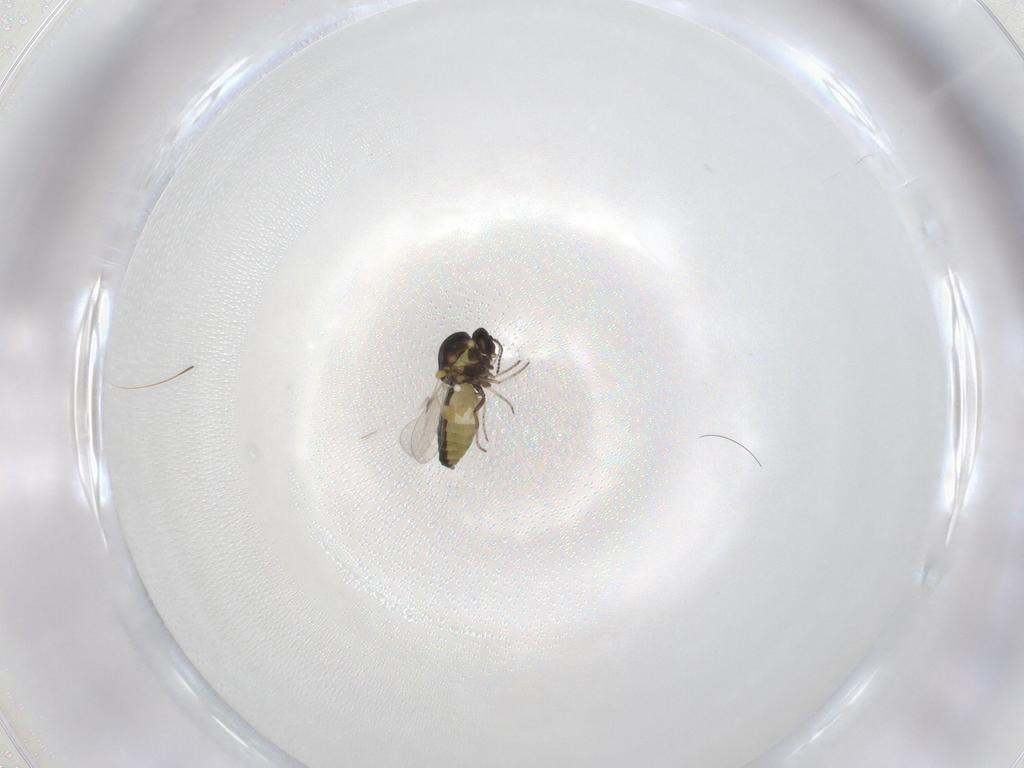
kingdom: Animalia
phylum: Arthropoda
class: Insecta
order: Diptera
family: Ceratopogonidae
